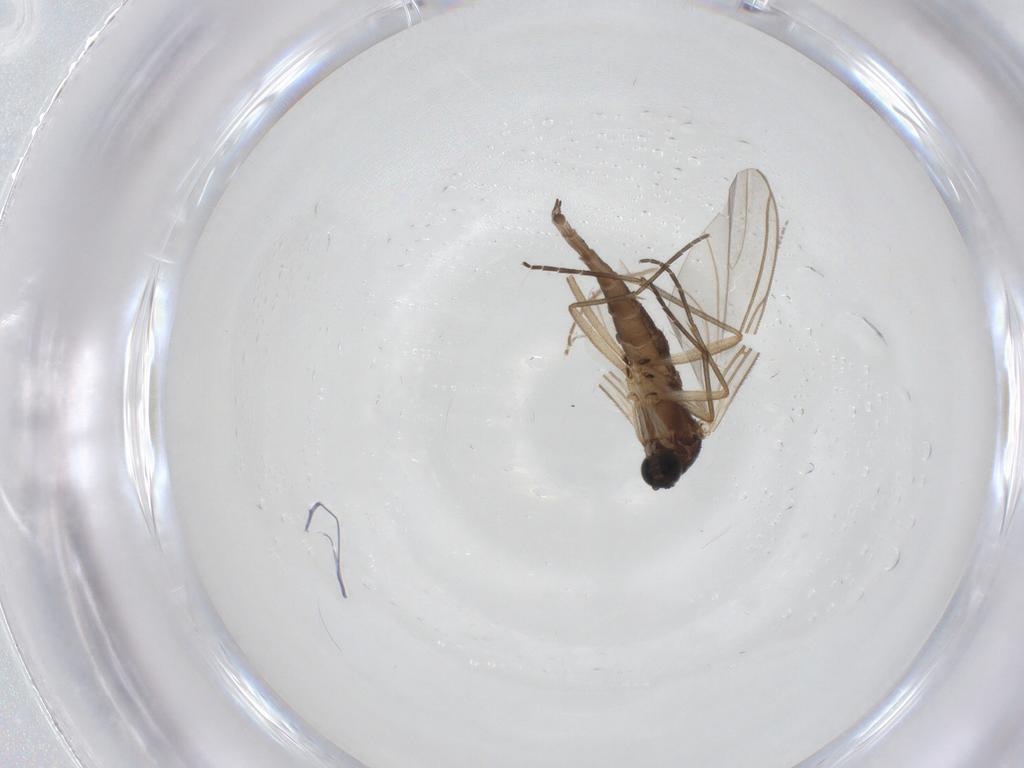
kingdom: Animalia
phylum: Arthropoda
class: Insecta
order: Diptera
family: Sciaridae
